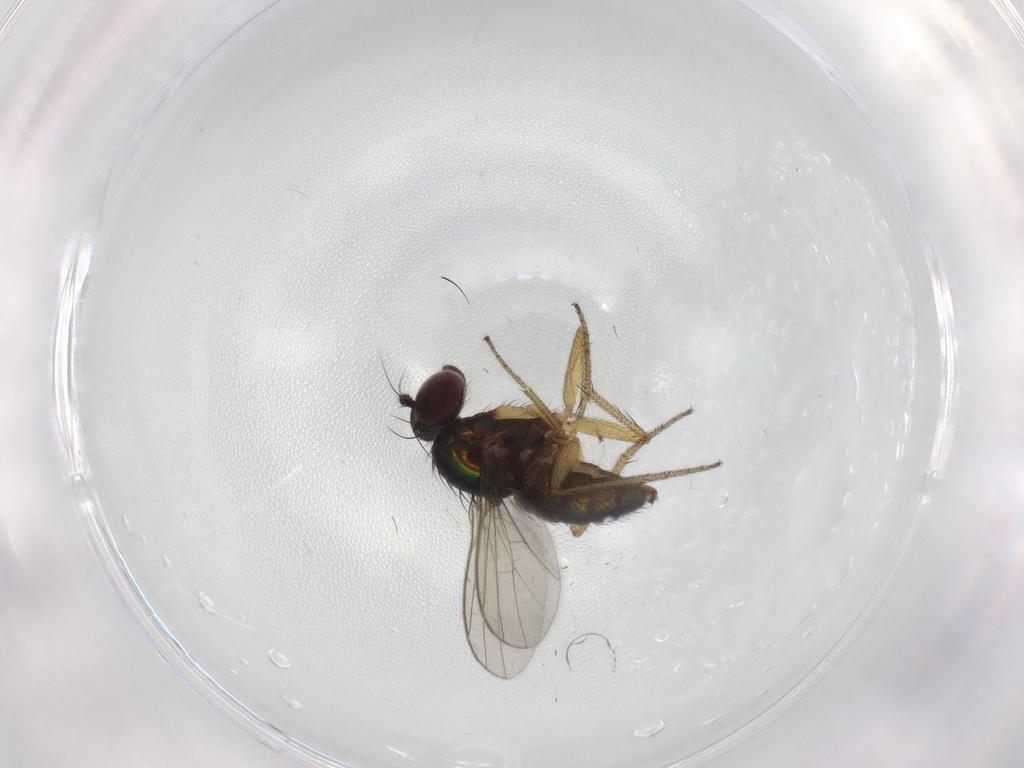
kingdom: Animalia
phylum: Arthropoda
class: Insecta
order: Diptera
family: Dolichopodidae
